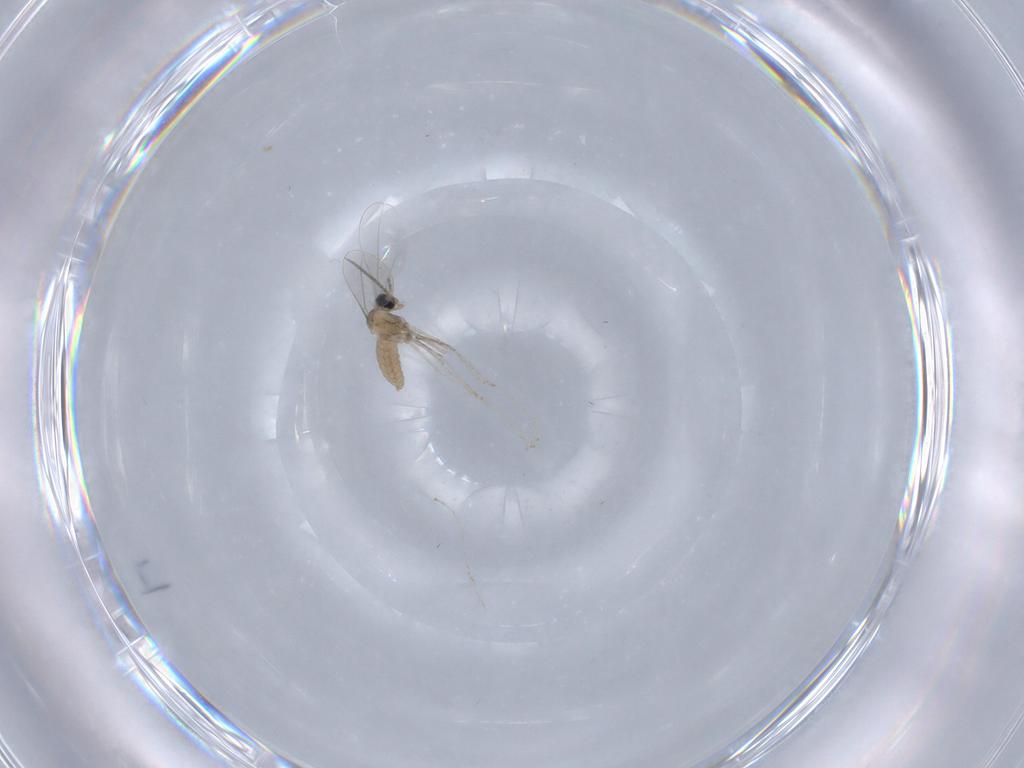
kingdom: Animalia
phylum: Arthropoda
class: Insecta
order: Diptera
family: Cecidomyiidae
